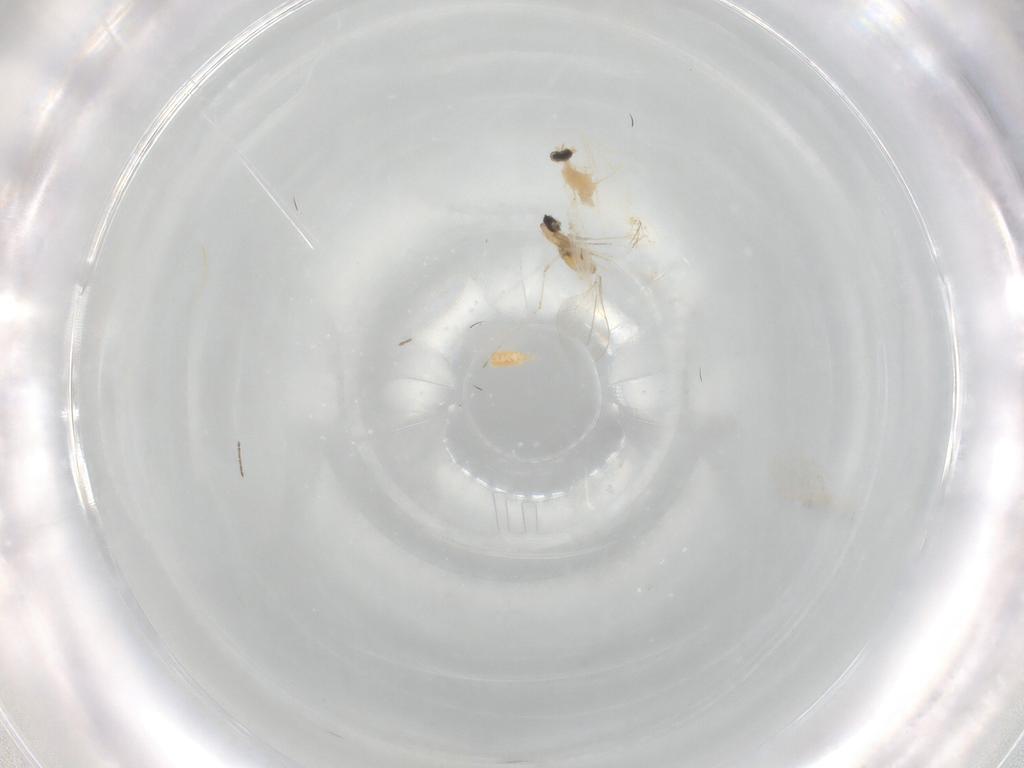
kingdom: Animalia
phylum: Arthropoda
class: Insecta
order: Diptera
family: Cecidomyiidae
